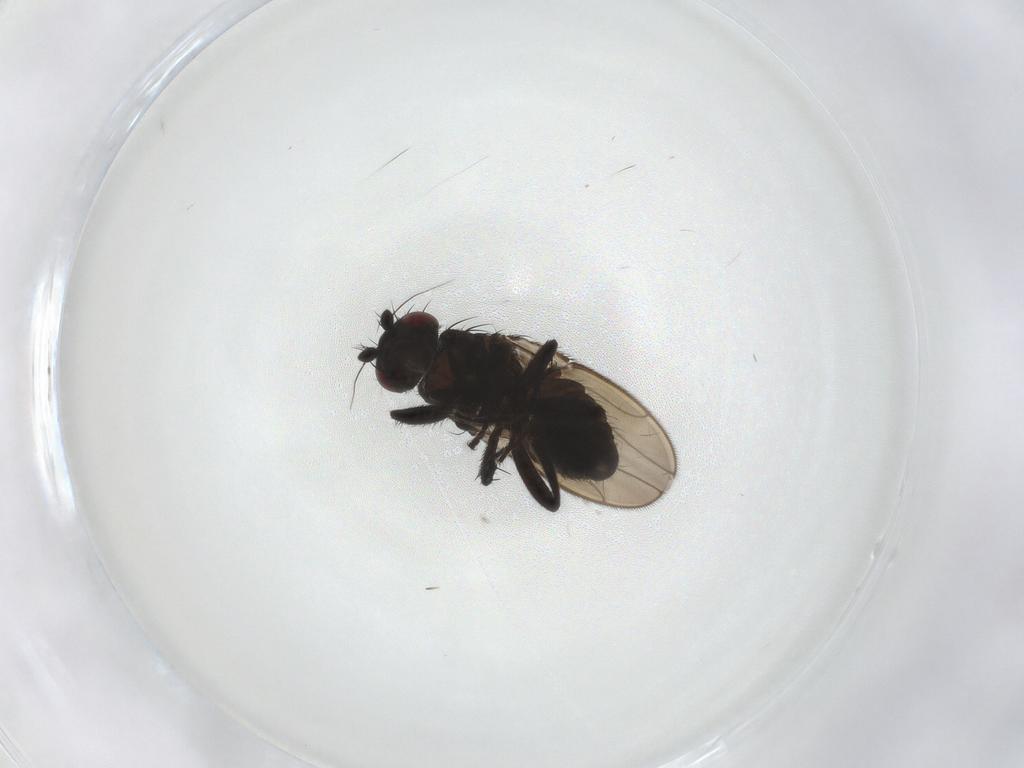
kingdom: Animalia
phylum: Arthropoda
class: Insecta
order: Diptera
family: Sphaeroceridae
